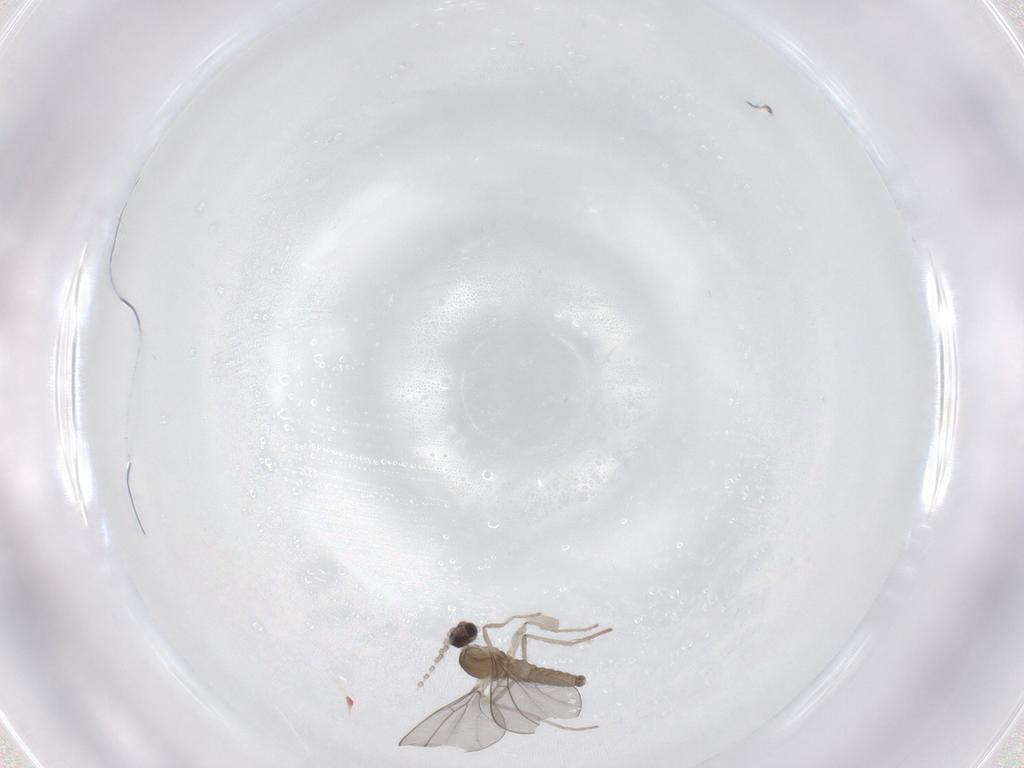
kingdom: Animalia
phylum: Arthropoda
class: Insecta
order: Diptera
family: Cecidomyiidae
